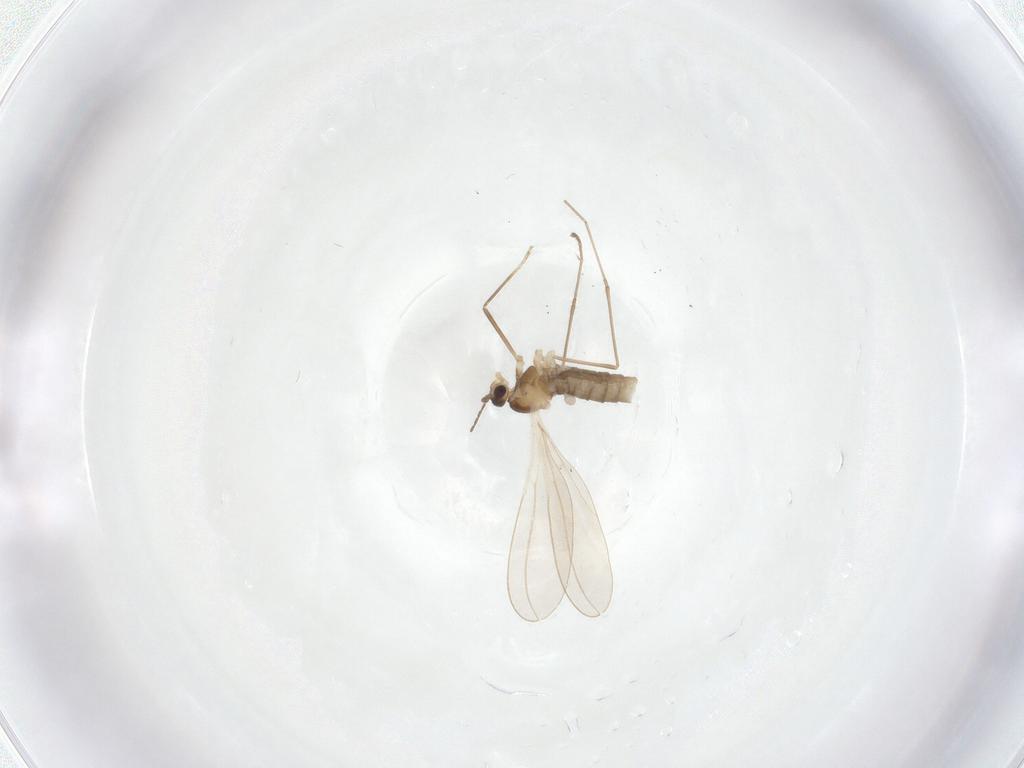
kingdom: Animalia
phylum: Arthropoda
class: Insecta
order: Diptera
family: Cecidomyiidae
